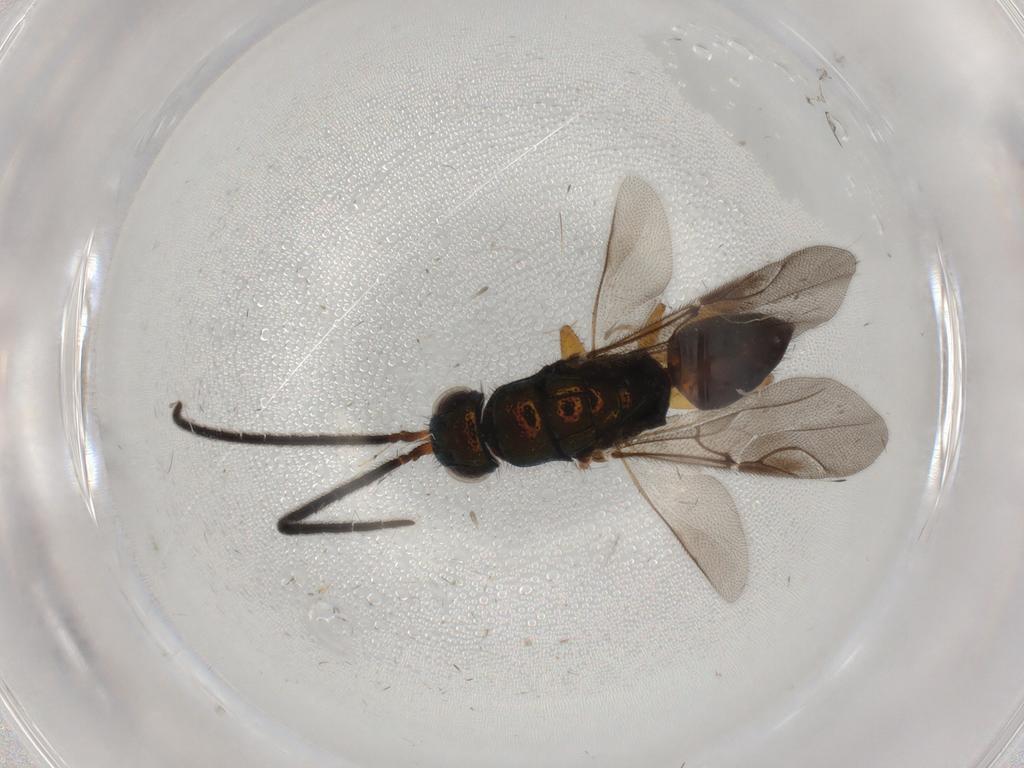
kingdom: Animalia
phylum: Arthropoda
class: Insecta
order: Hymenoptera
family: Chrysididae
